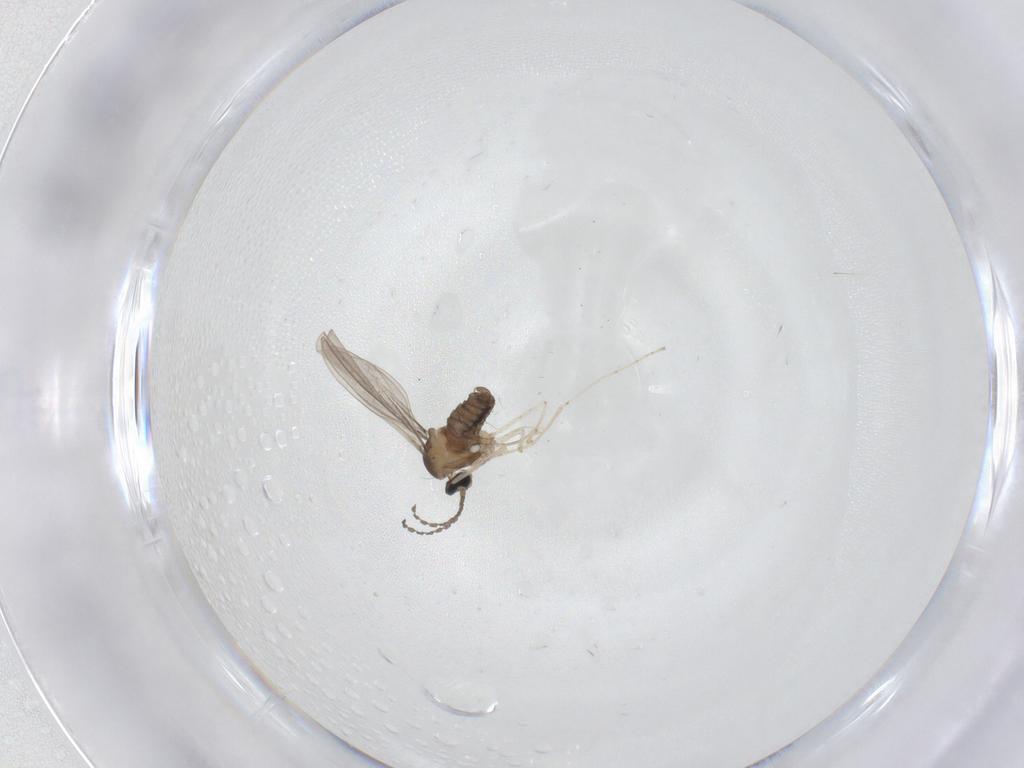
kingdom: Animalia
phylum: Arthropoda
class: Insecta
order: Diptera
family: Cecidomyiidae
